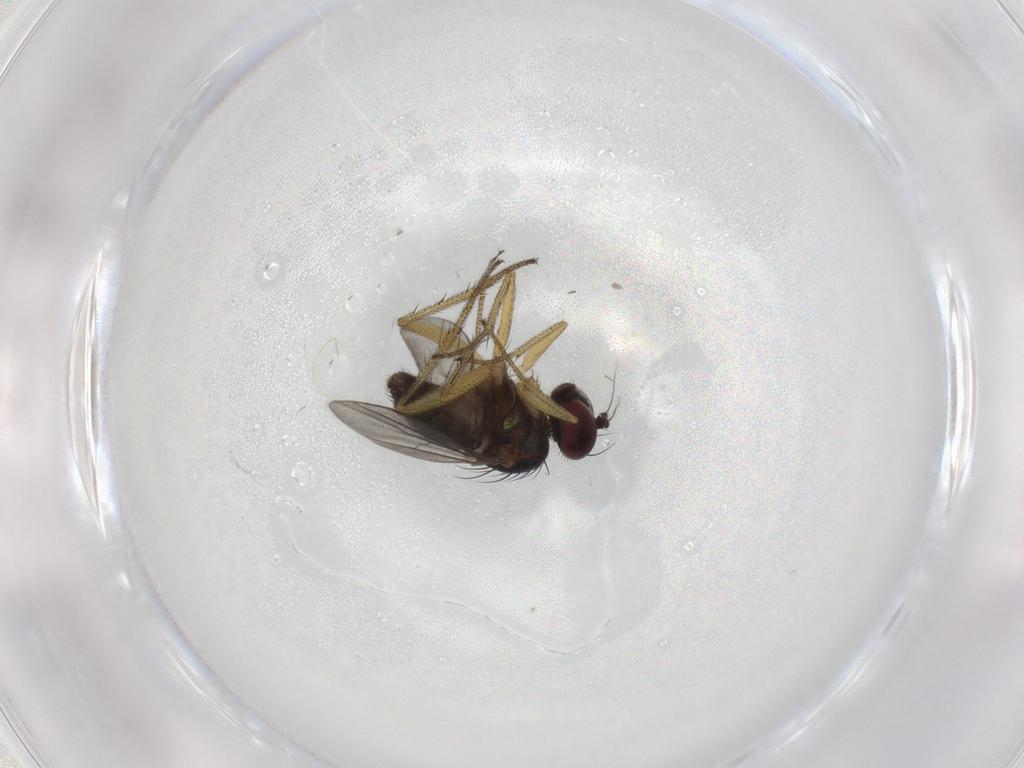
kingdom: Animalia
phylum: Arthropoda
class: Insecta
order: Diptera
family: Dolichopodidae
